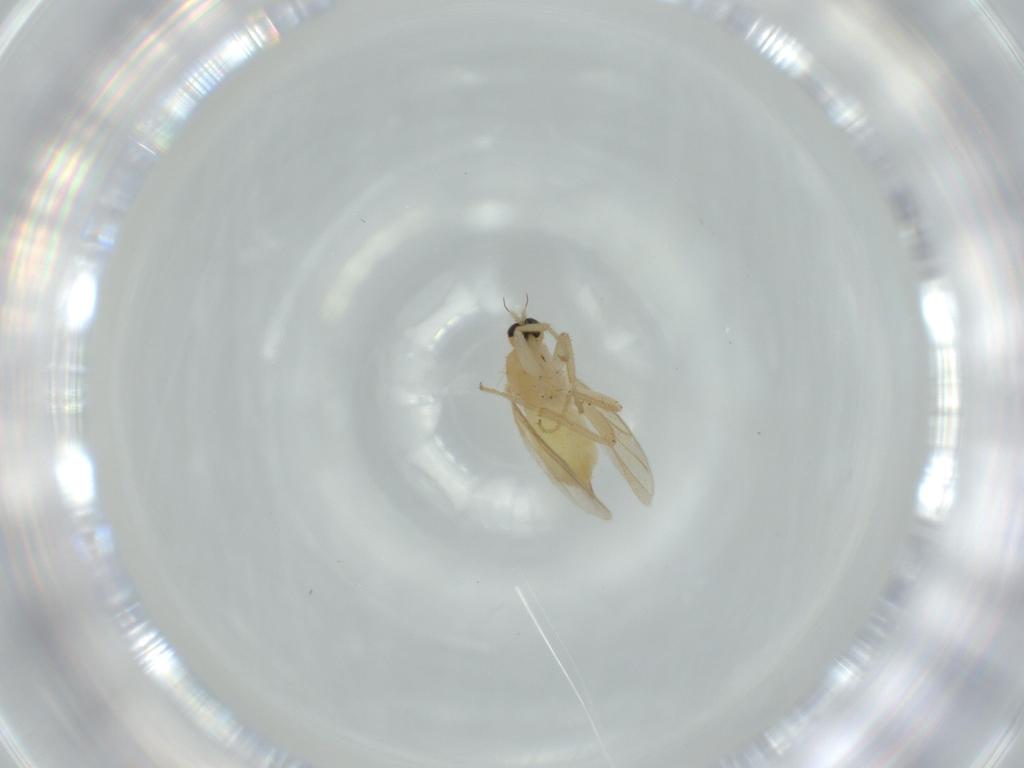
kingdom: Animalia
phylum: Arthropoda
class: Insecta
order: Diptera
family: Hybotidae
